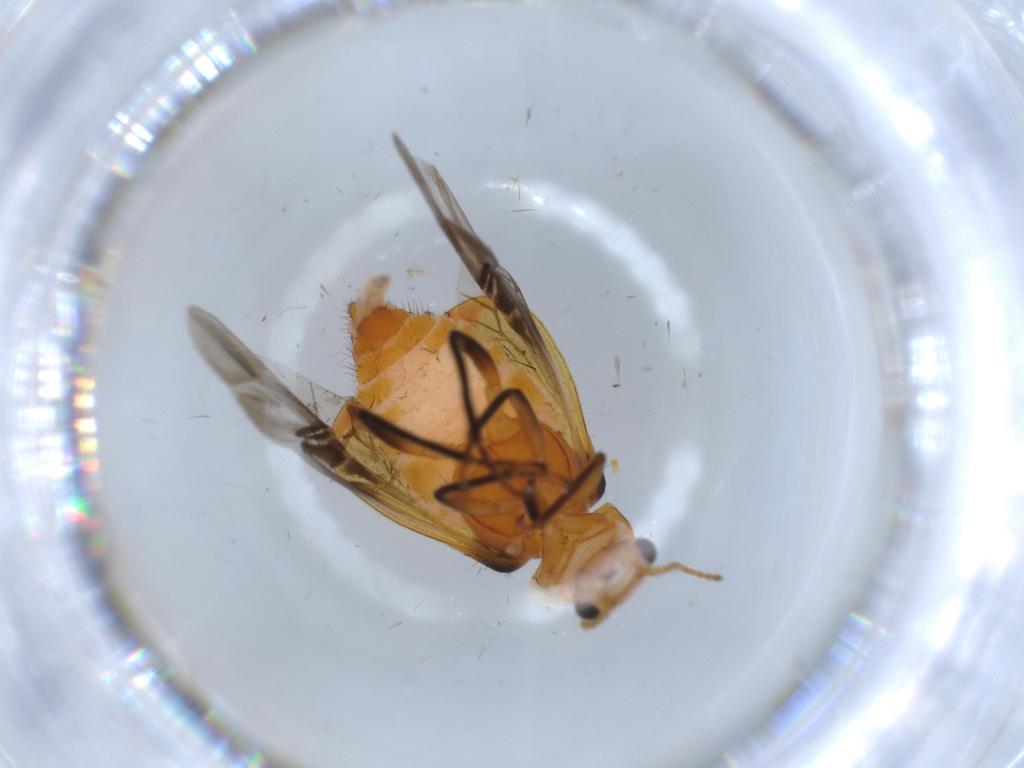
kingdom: Animalia
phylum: Arthropoda
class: Insecta
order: Coleoptera
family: Melyridae
